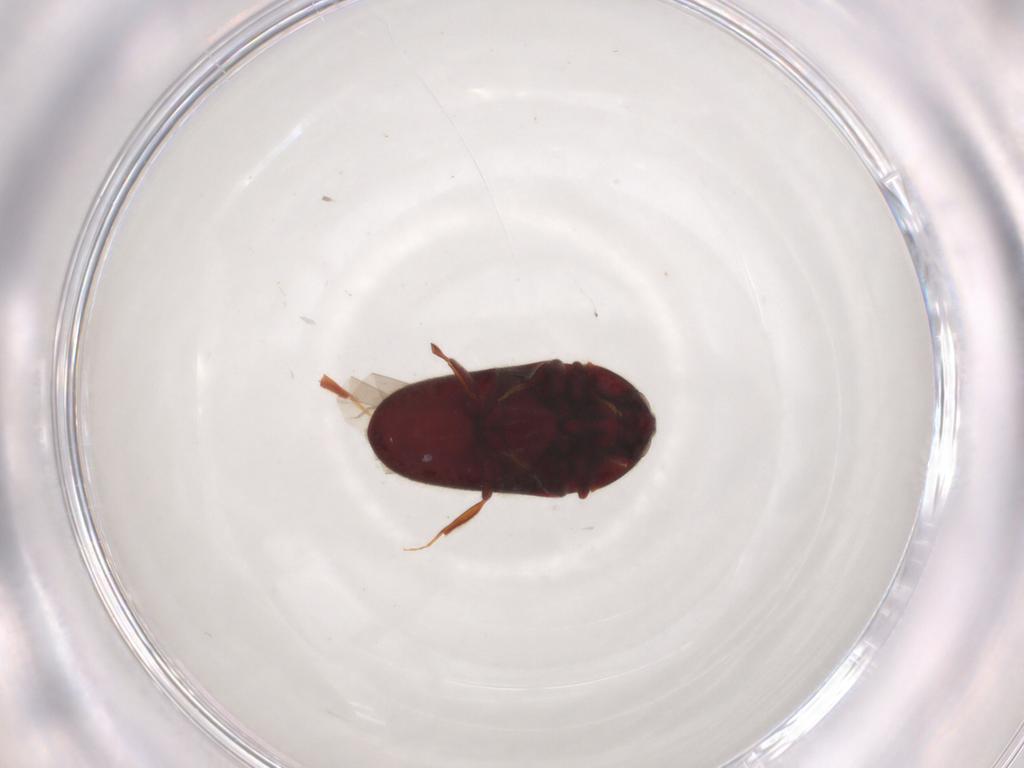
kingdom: Animalia
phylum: Arthropoda
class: Insecta
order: Coleoptera
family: Throscidae
